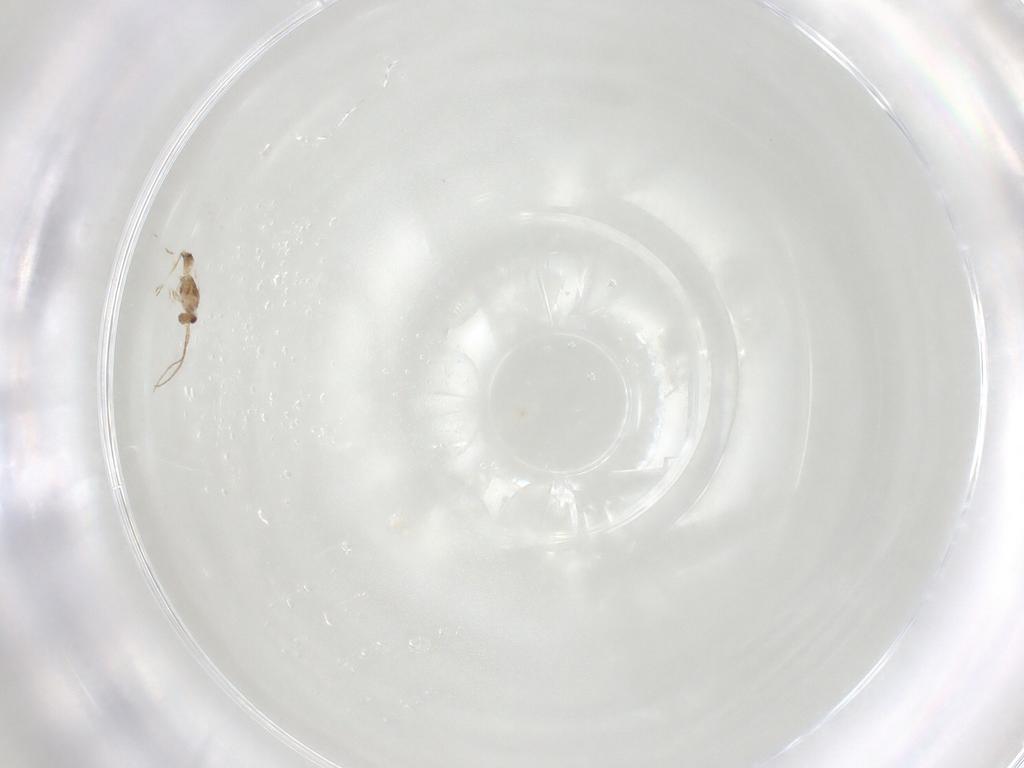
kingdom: Animalia
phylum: Arthropoda
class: Insecta
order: Hymenoptera
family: Mymaridae
